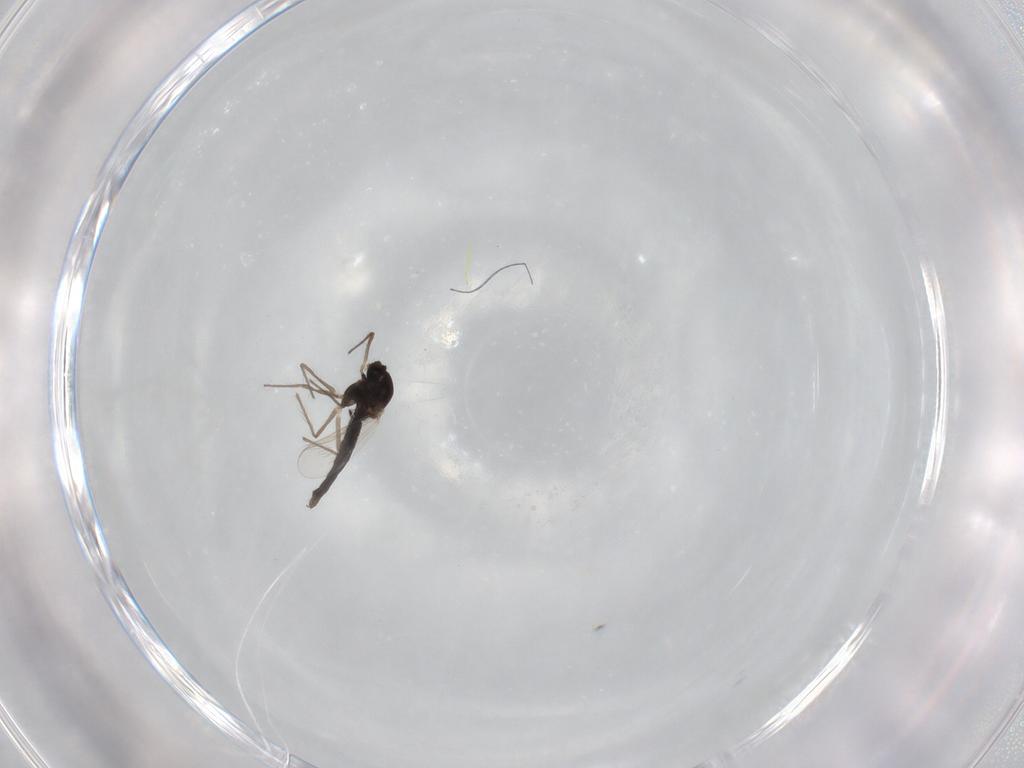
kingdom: Animalia
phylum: Arthropoda
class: Insecta
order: Diptera
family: Chironomidae
